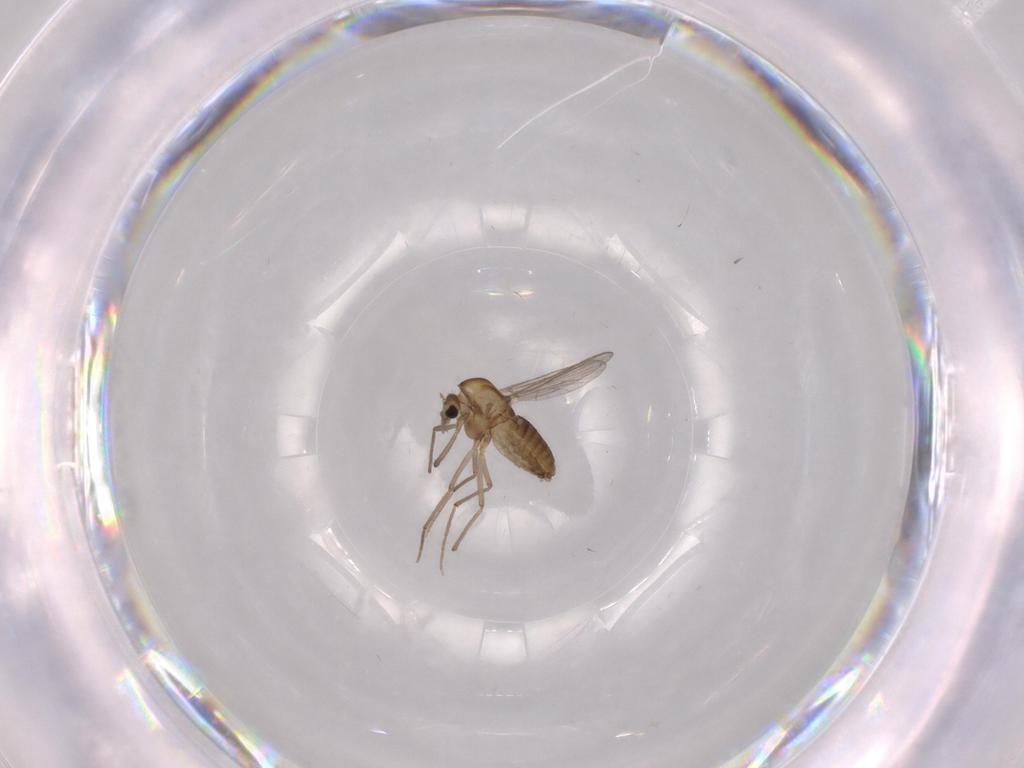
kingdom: Animalia
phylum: Arthropoda
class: Insecta
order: Diptera
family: Chironomidae
